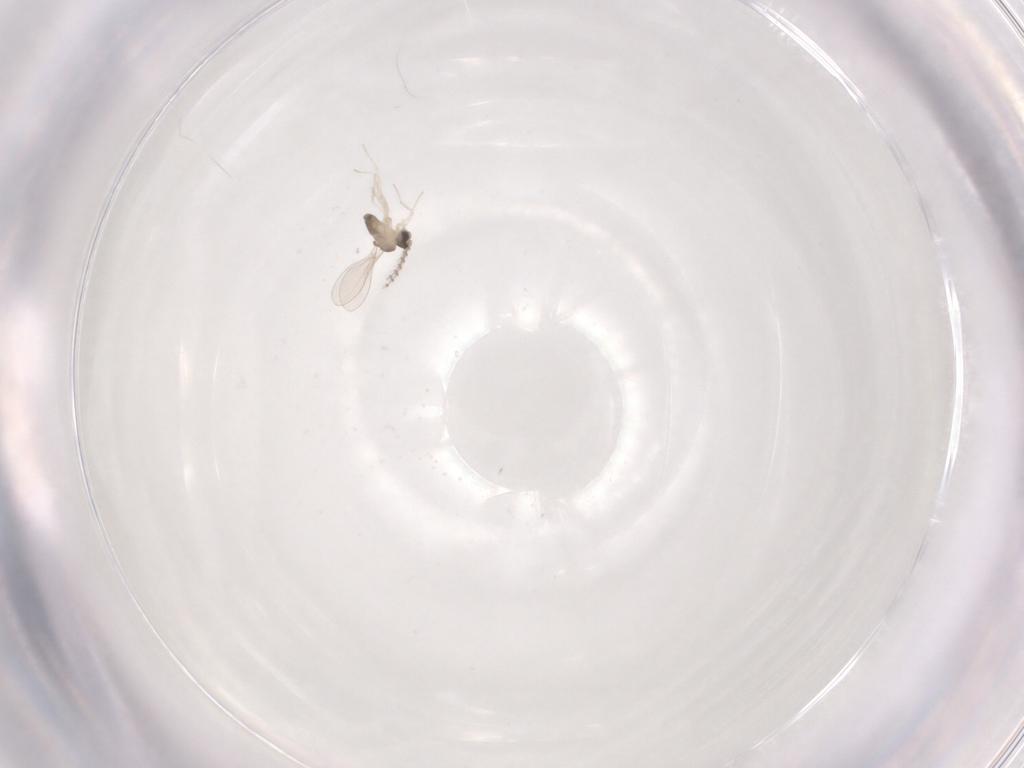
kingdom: Animalia
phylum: Arthropoda
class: Insecta
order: Diptera
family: Cecidomyiidae
